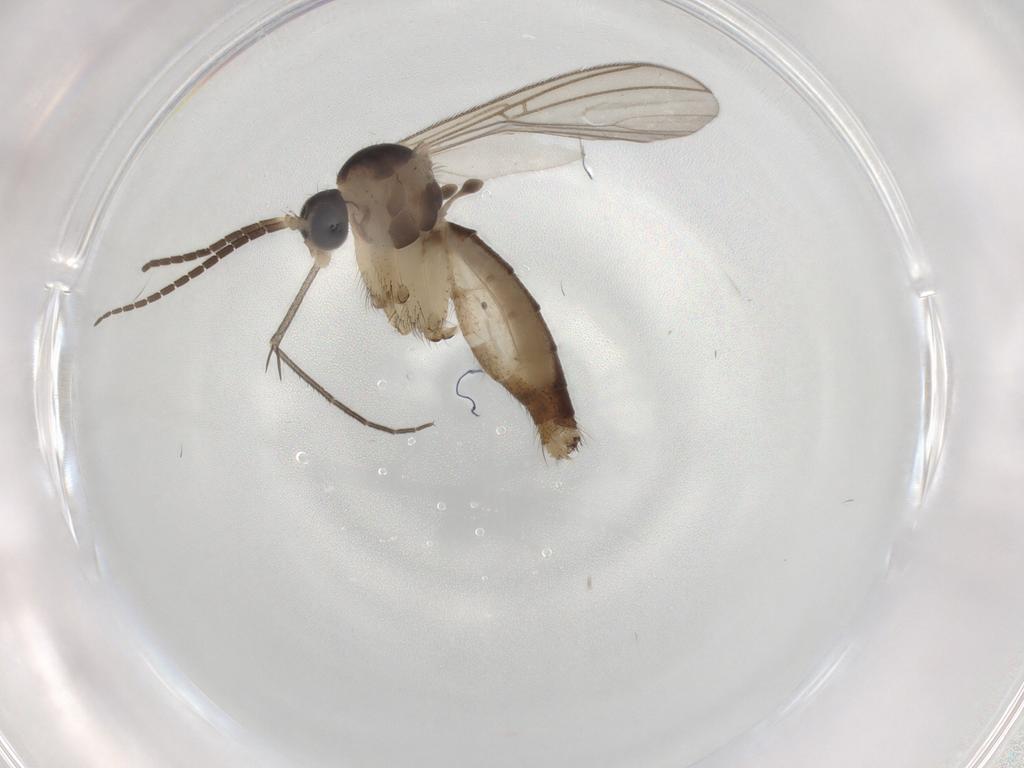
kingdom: Animalia
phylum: Arthropoda
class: Insecta
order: Diptera
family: Mycetophilidae
